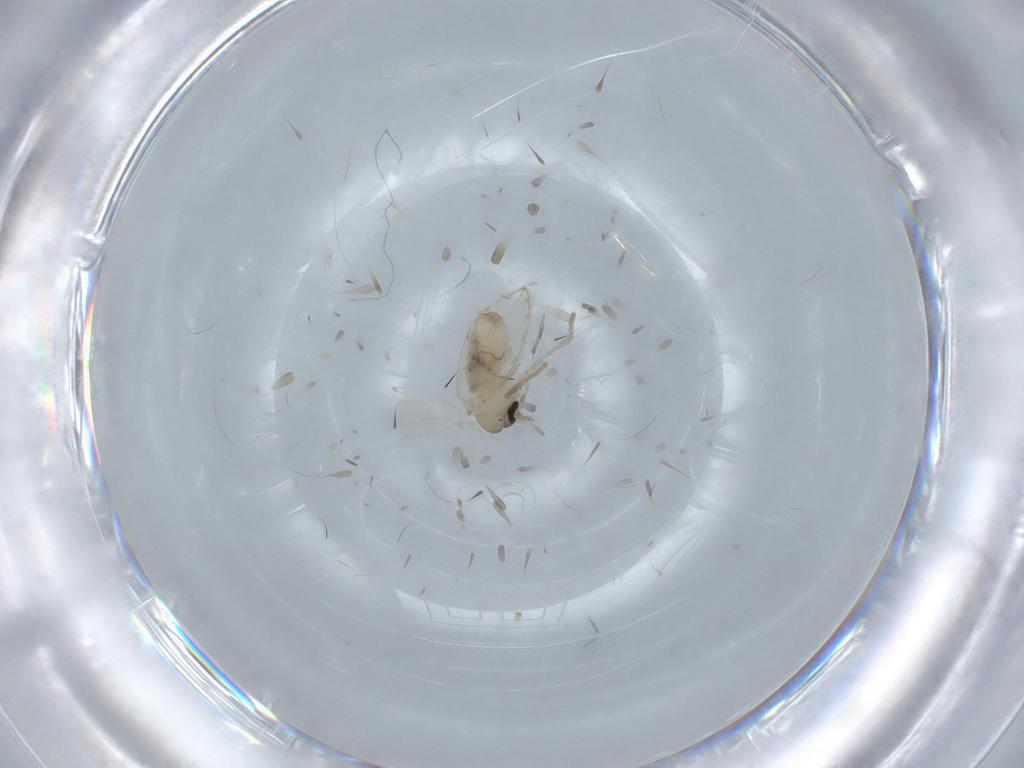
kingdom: Animalia
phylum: Arthropoda
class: Insecta
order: Diptera
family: Psychodidae
